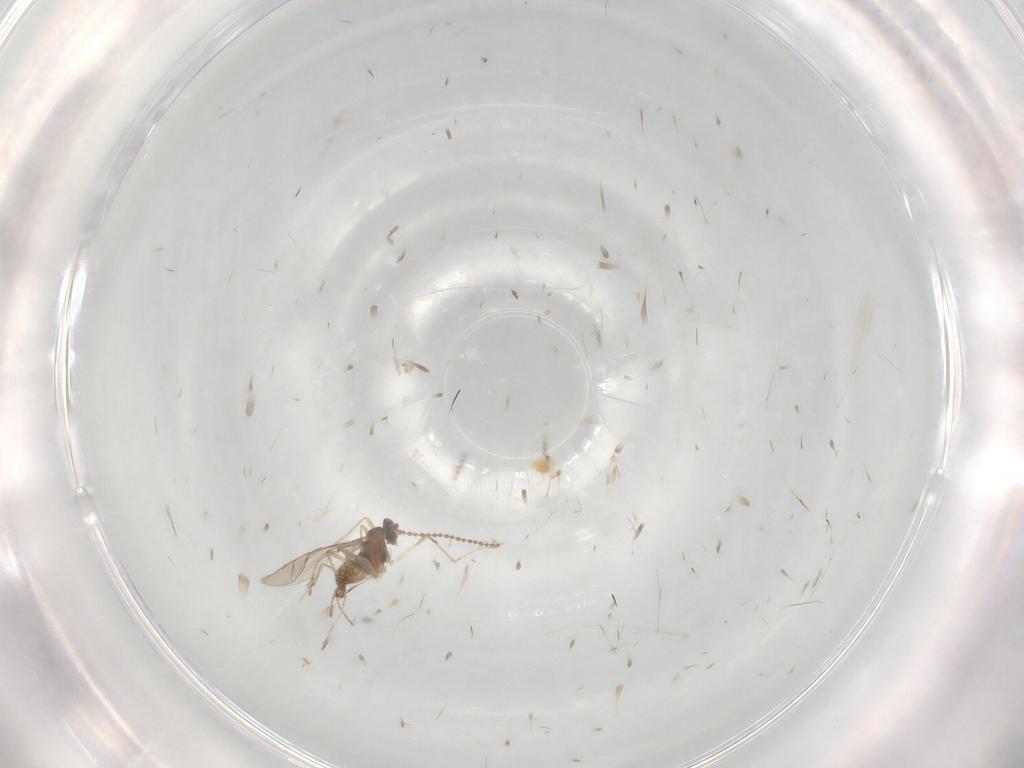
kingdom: Animalia
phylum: Arthropoda
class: Insecta
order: Diptera
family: Cecidomyiidae
